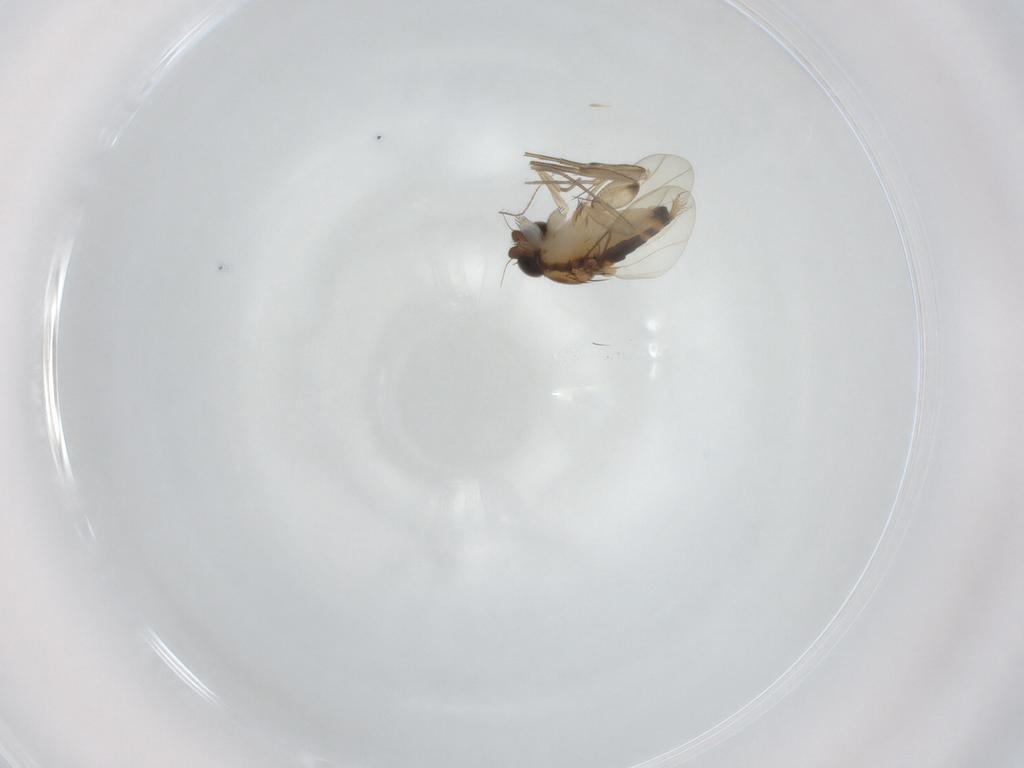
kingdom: Animalia
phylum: Arthropoda
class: Insecta
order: Diptera
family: Phoridae
